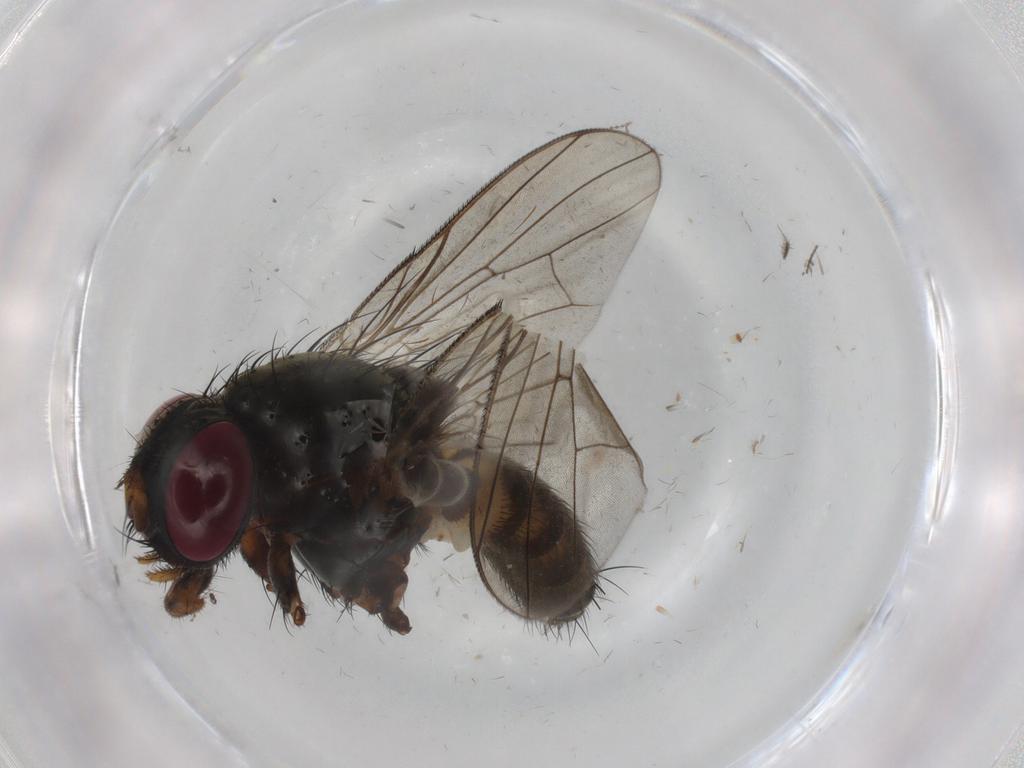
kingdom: Animalia
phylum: Arthropoda
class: Insecta
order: Diptera
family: Fannia
